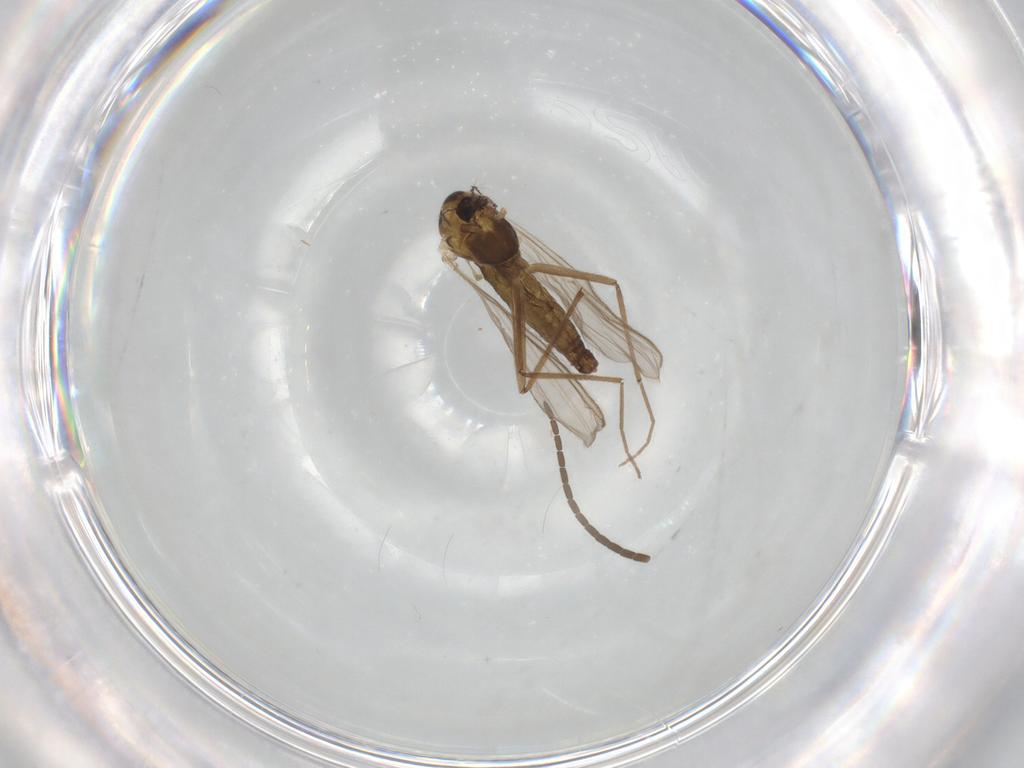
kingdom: Animalia
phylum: Arthropoda
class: Insecta
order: Diptera
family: Chironomidae
